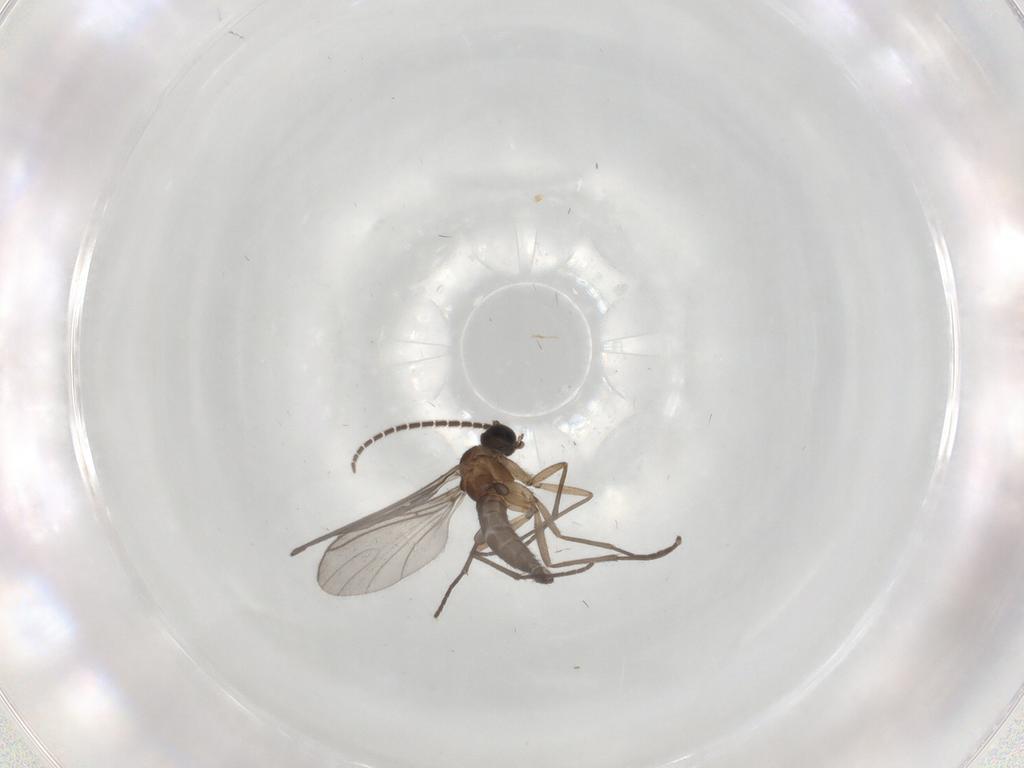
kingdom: Animalia
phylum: Arthropoda
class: Insecta
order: Diptera
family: Sciaridae
